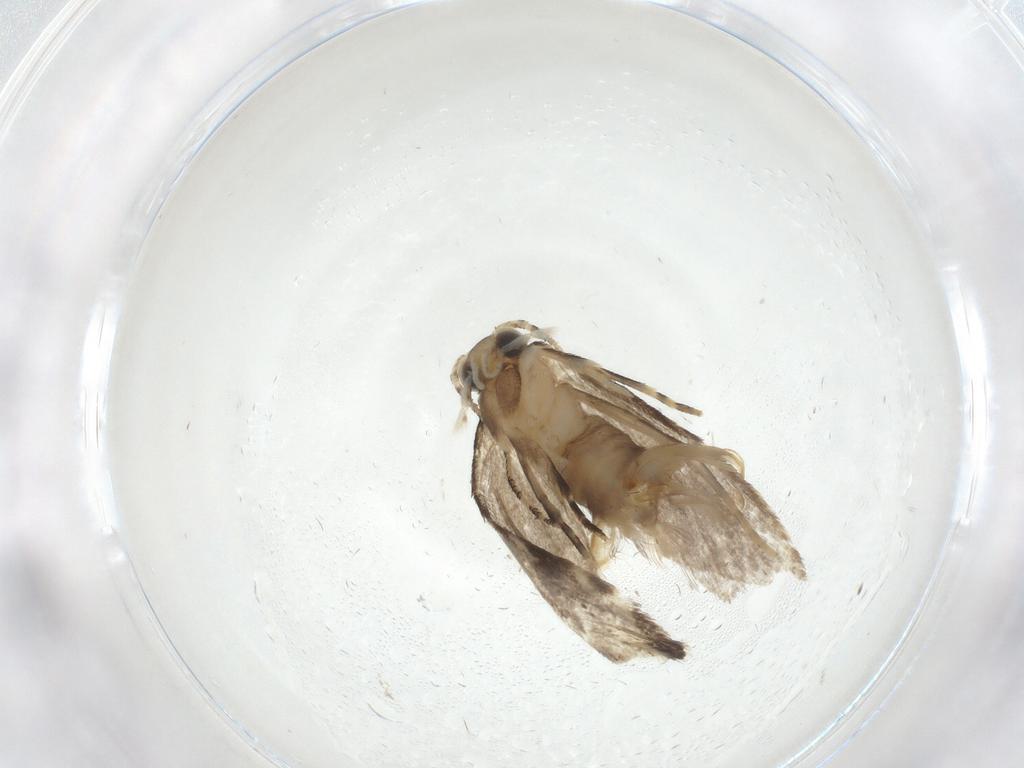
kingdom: Animalia
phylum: Arthropoda
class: Insecta
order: Lepidoptera
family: Tineidae
